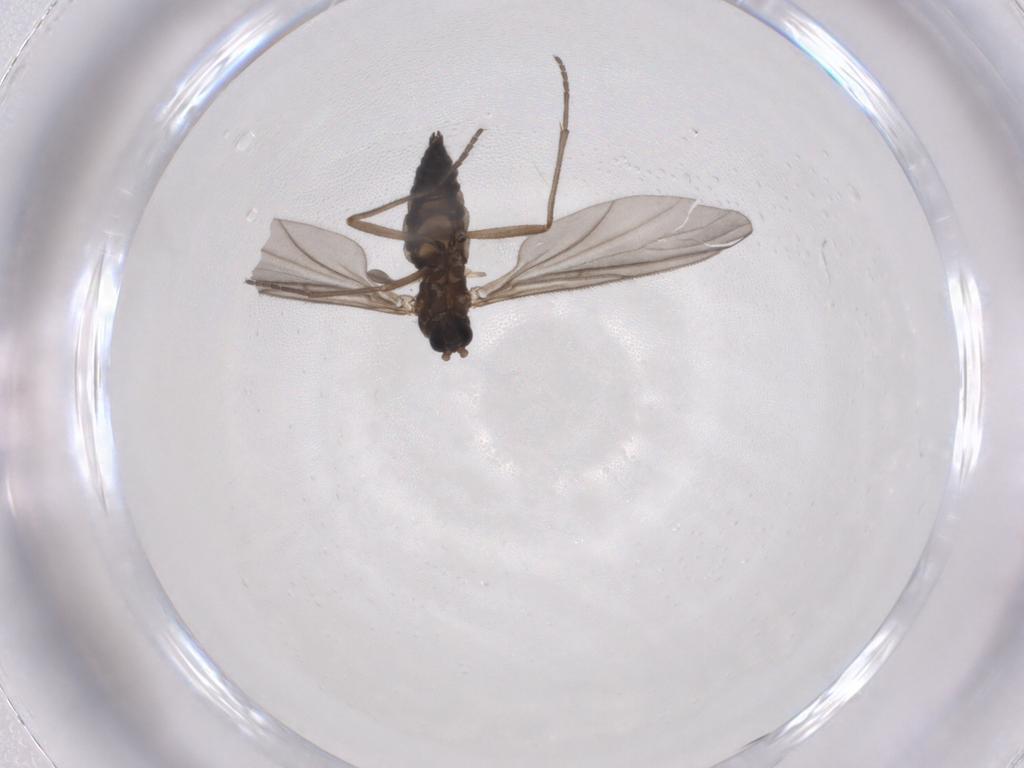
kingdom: Animalia
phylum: Arthropoda
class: Insecta
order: Diptera
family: Sciaridae
